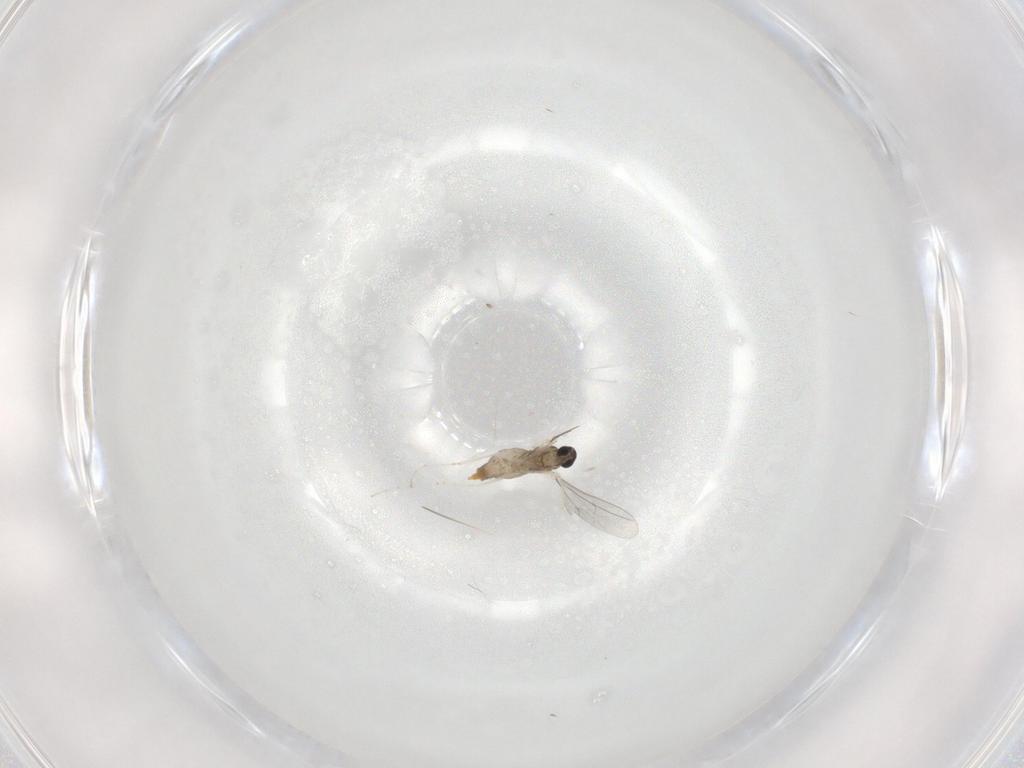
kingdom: Animalia
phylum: Arthropoda
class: Insecta
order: Diptera
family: Cecidomyiidae
